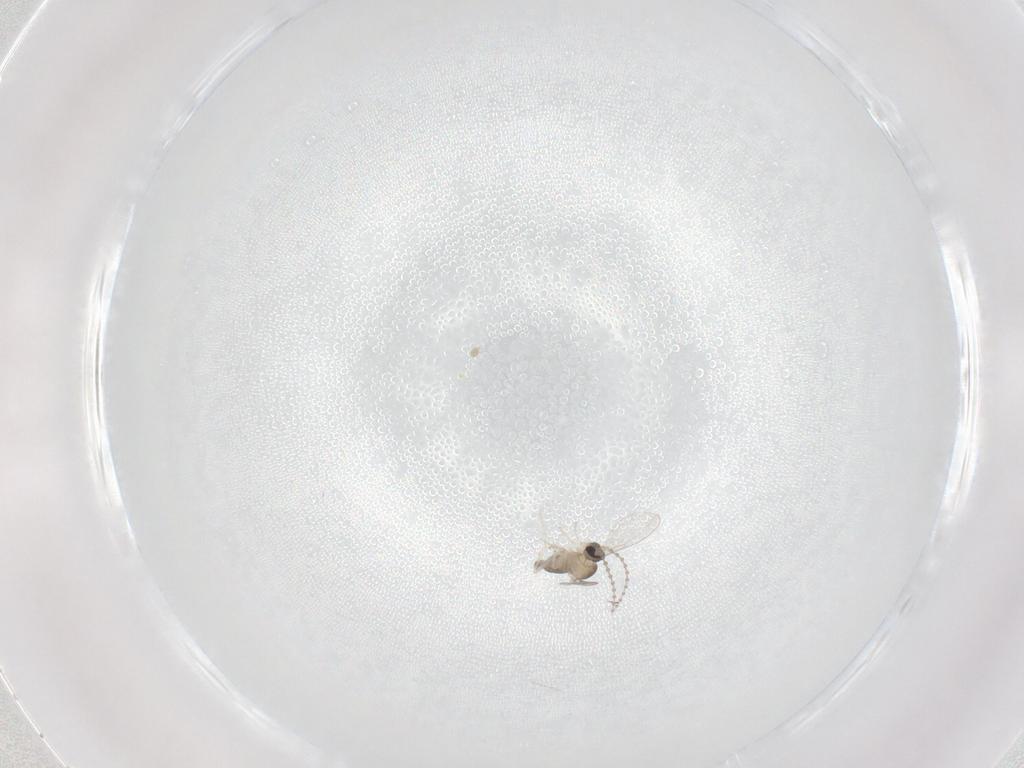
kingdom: Animalia
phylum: Arthropoda
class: Insecta
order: Diptera
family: Cecidomyiidae
